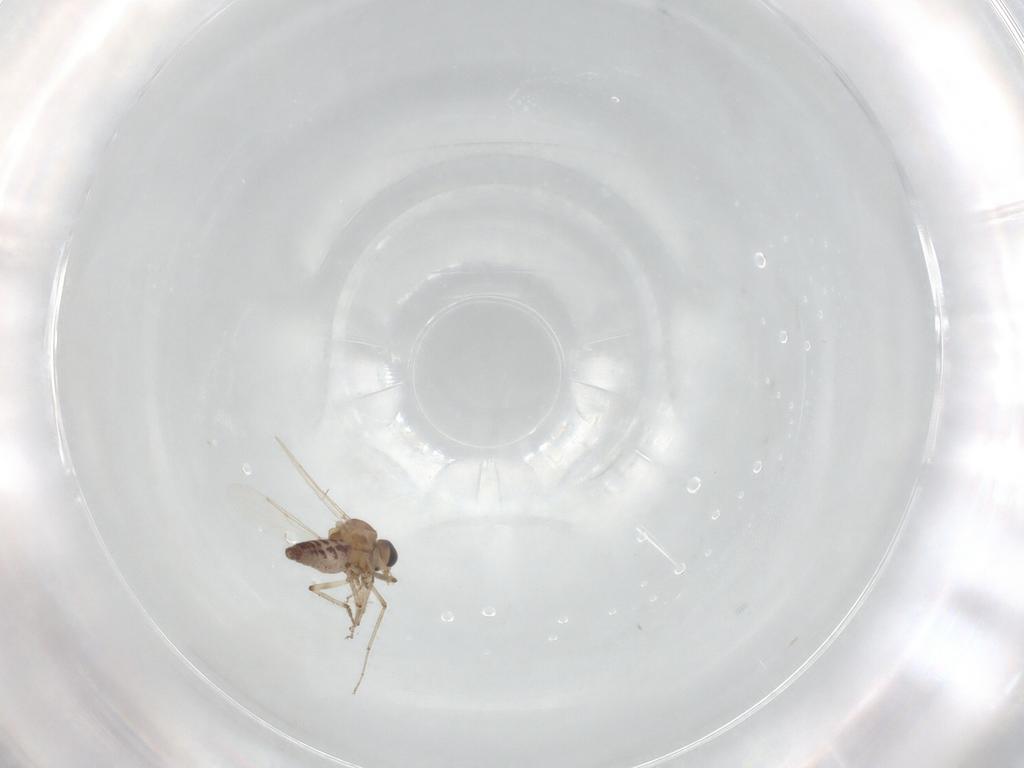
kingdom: Animalia
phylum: Arthropoda
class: Insecta
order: Diptera
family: Ceratopogonidae
